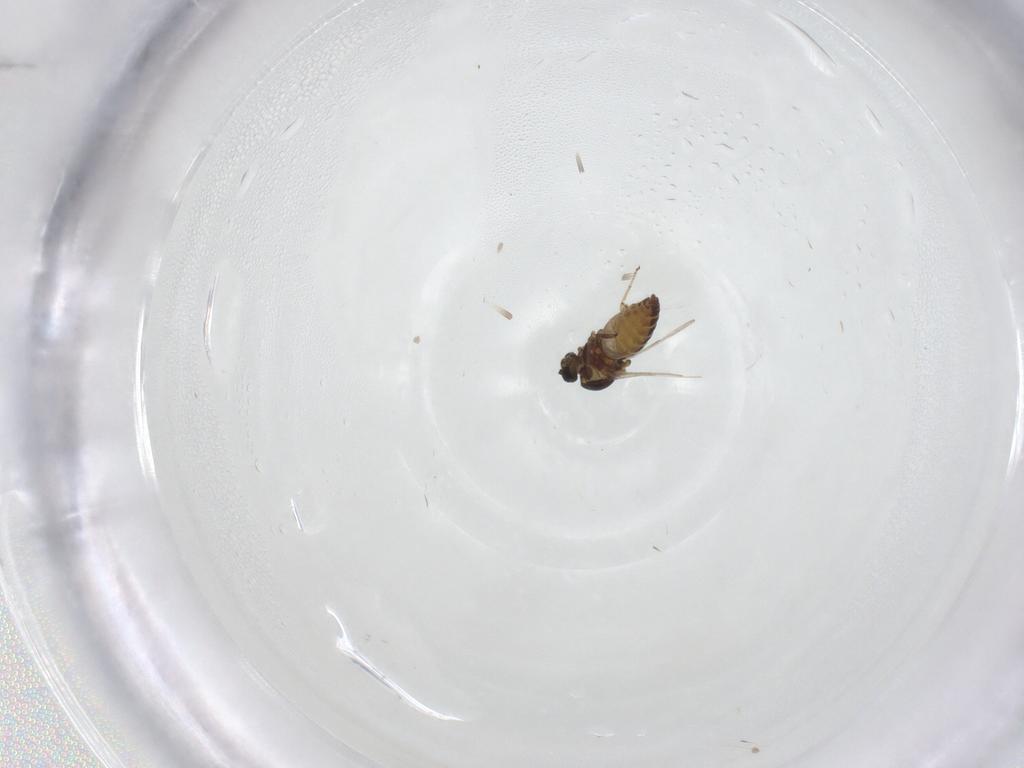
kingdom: Animalia
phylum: Arthropoda
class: Insecta
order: Diptera
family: Ceratopogonidae
